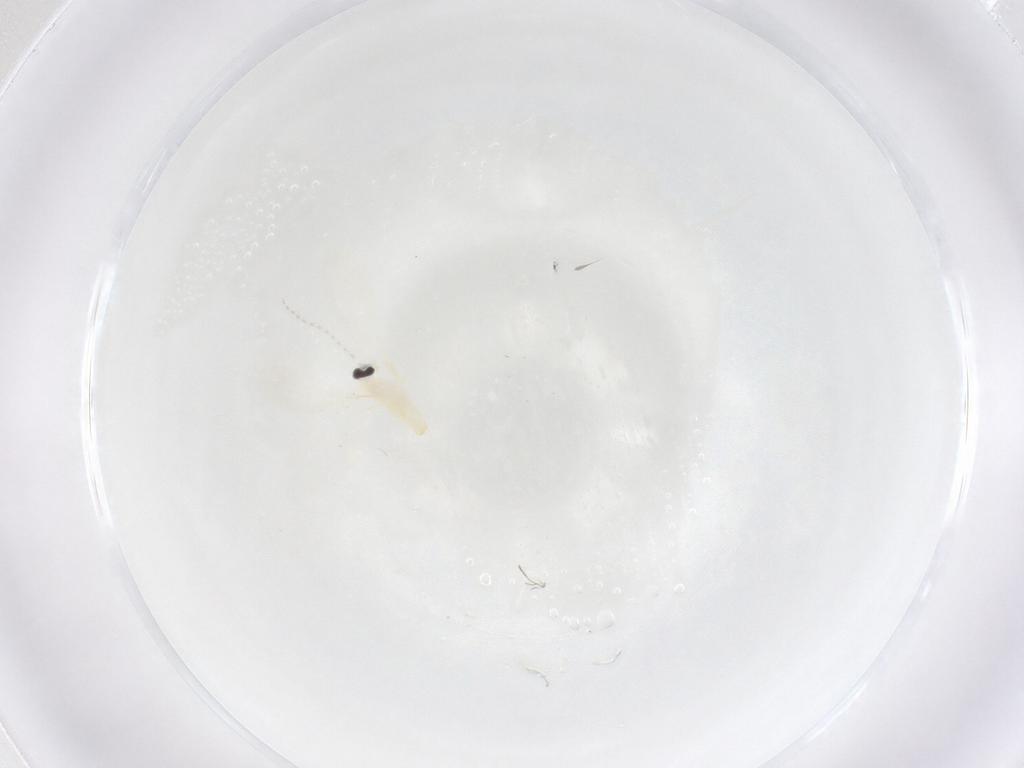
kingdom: Animalia
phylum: Arthropoda
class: Insecta
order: Diptera
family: Cecidomyiidae
